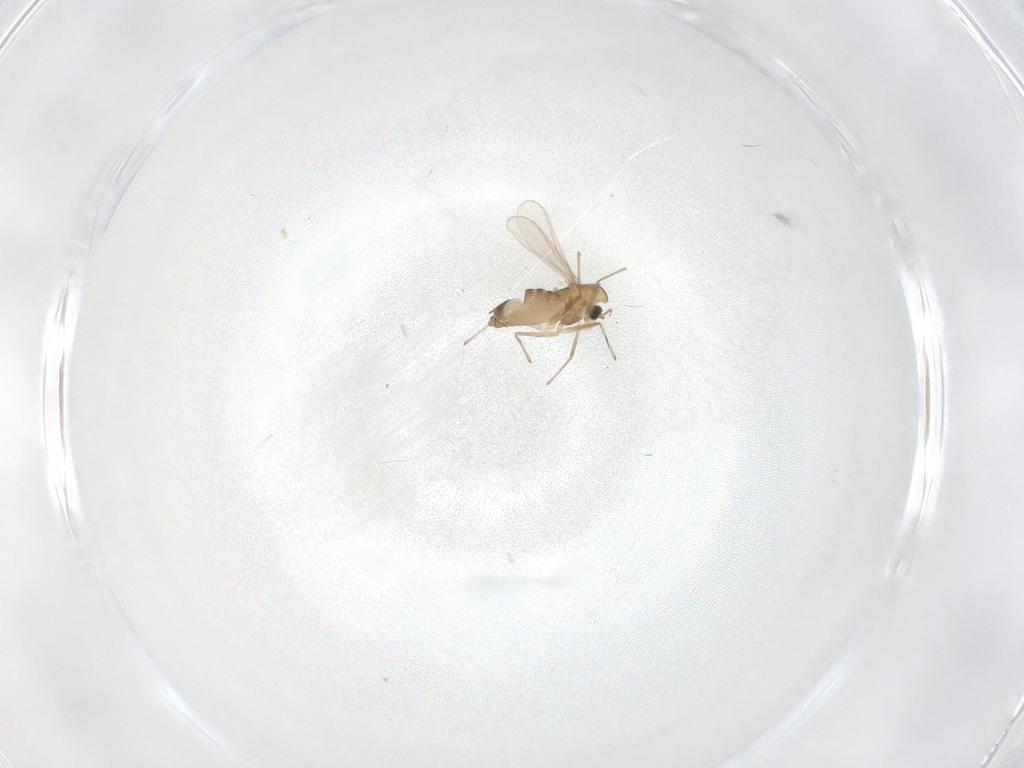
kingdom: Animalia
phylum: Arthropoda
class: Insecta
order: Diptera
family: Chironomidae
